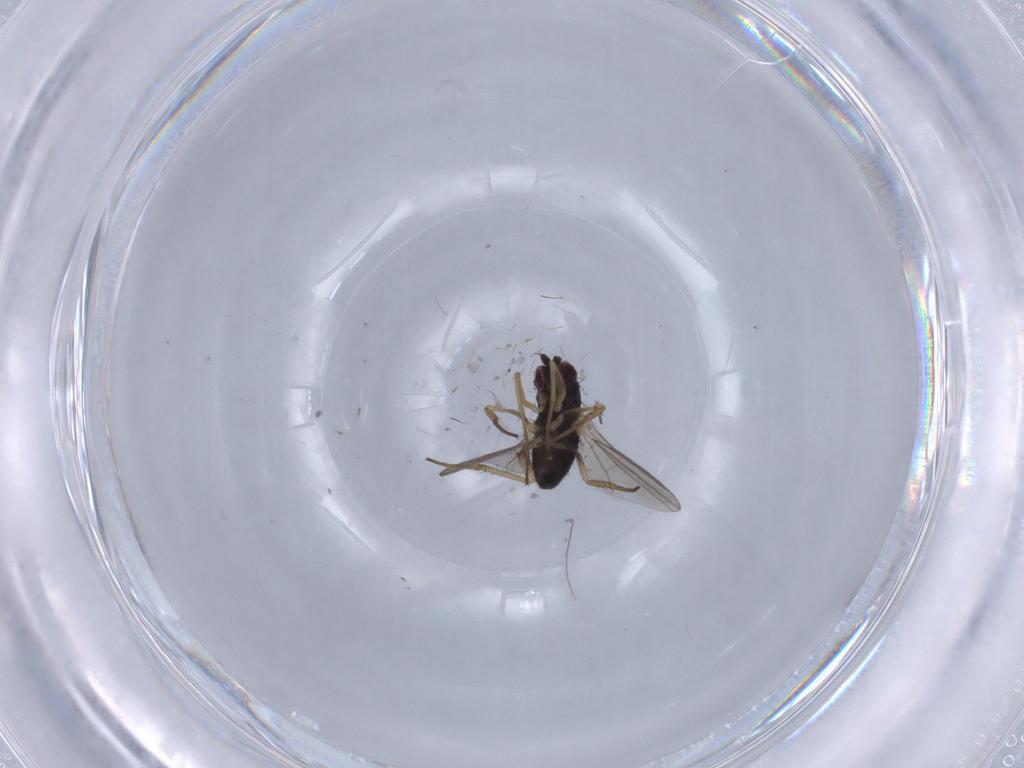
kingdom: Animalia
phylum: Arthropoda
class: Insecta
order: Diptera
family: Dolichopodidae
